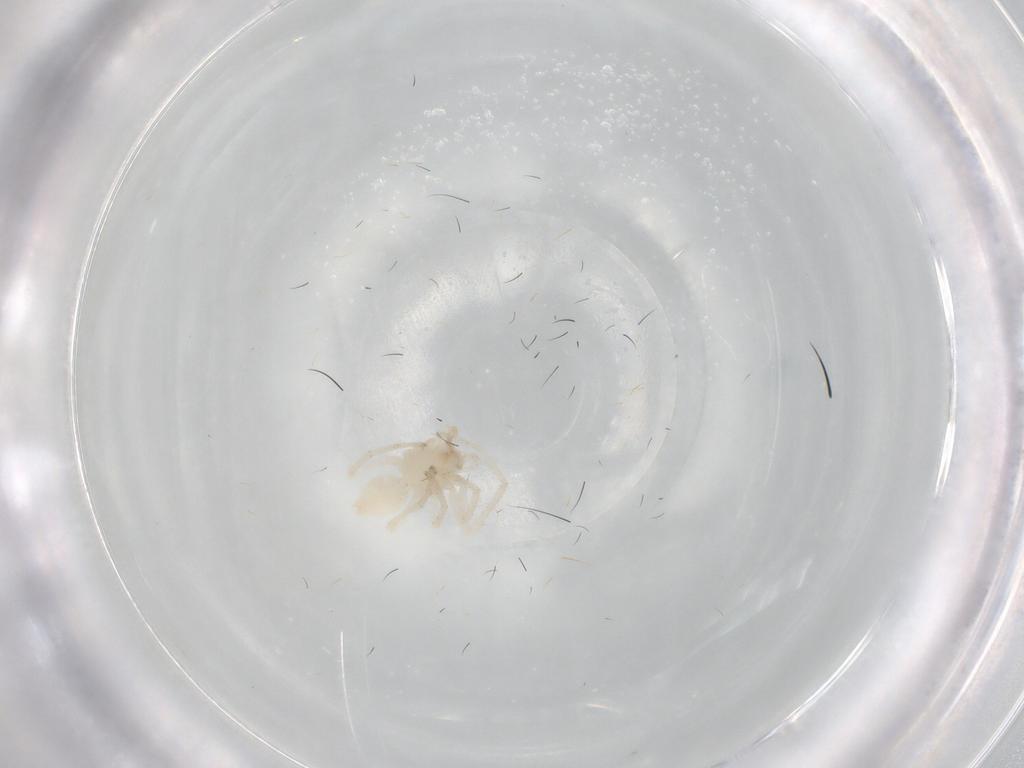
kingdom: Animalia
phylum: Arthropoda
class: Arachnida
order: Araneae
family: Anyphaenidae
